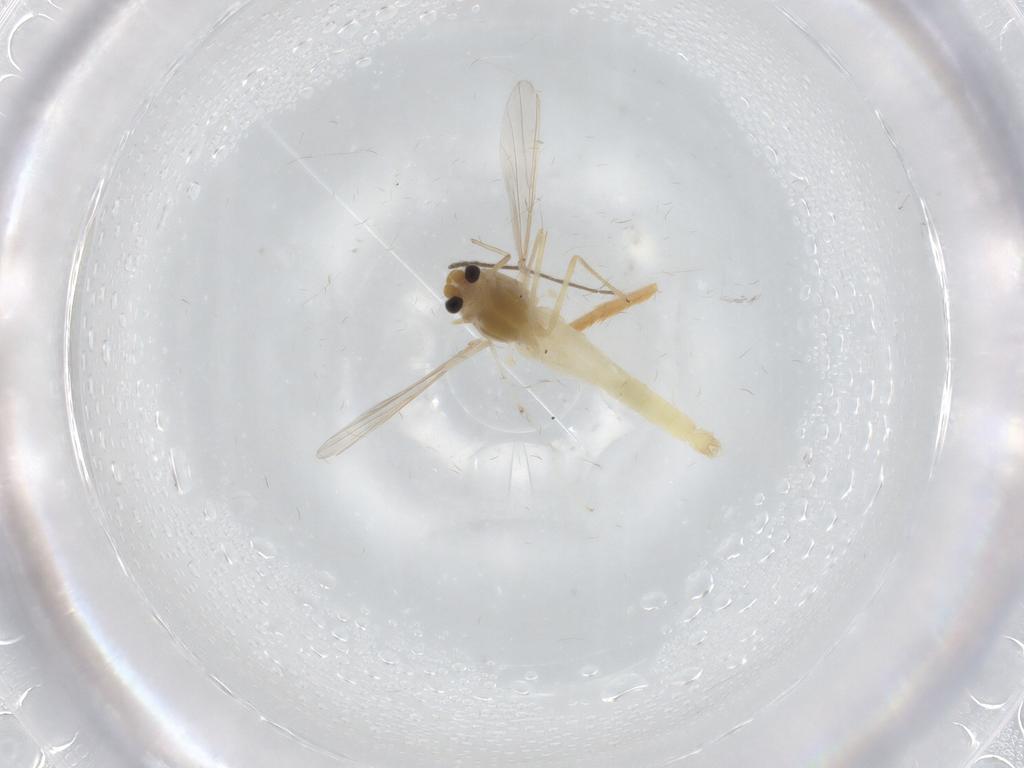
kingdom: Animalia
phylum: Arthropoda
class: Insecta
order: Diptera
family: Chironomidae
